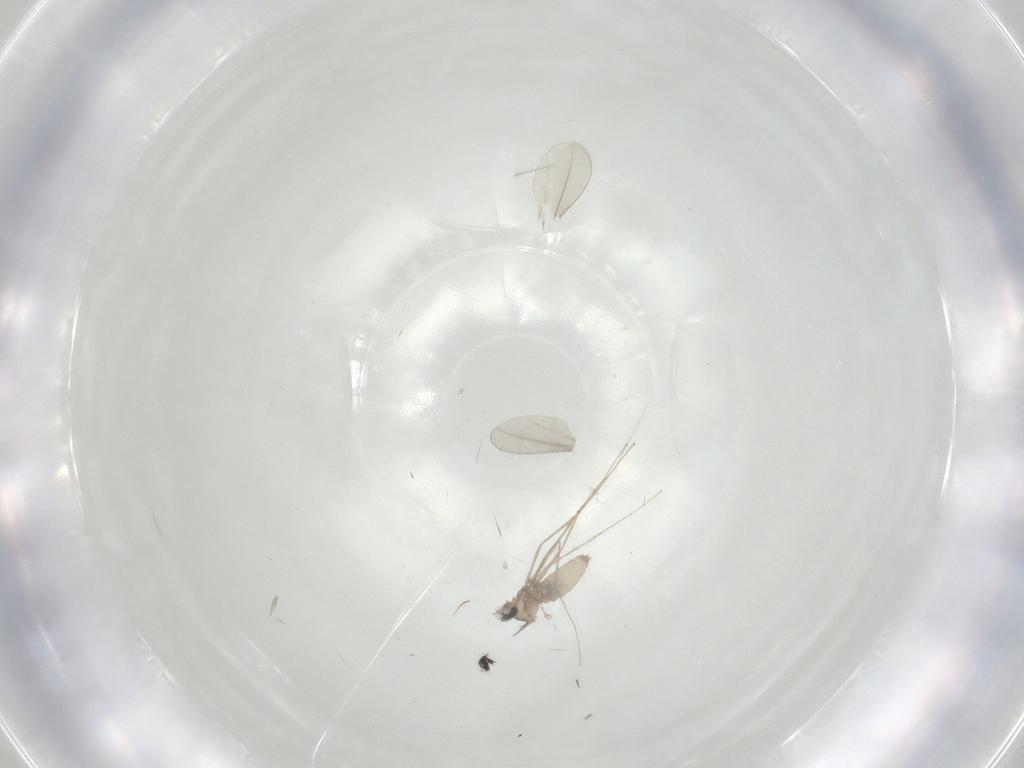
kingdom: Animalia
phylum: Arthropoda
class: Insecta
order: Diptera
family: Cecidomyiidae
